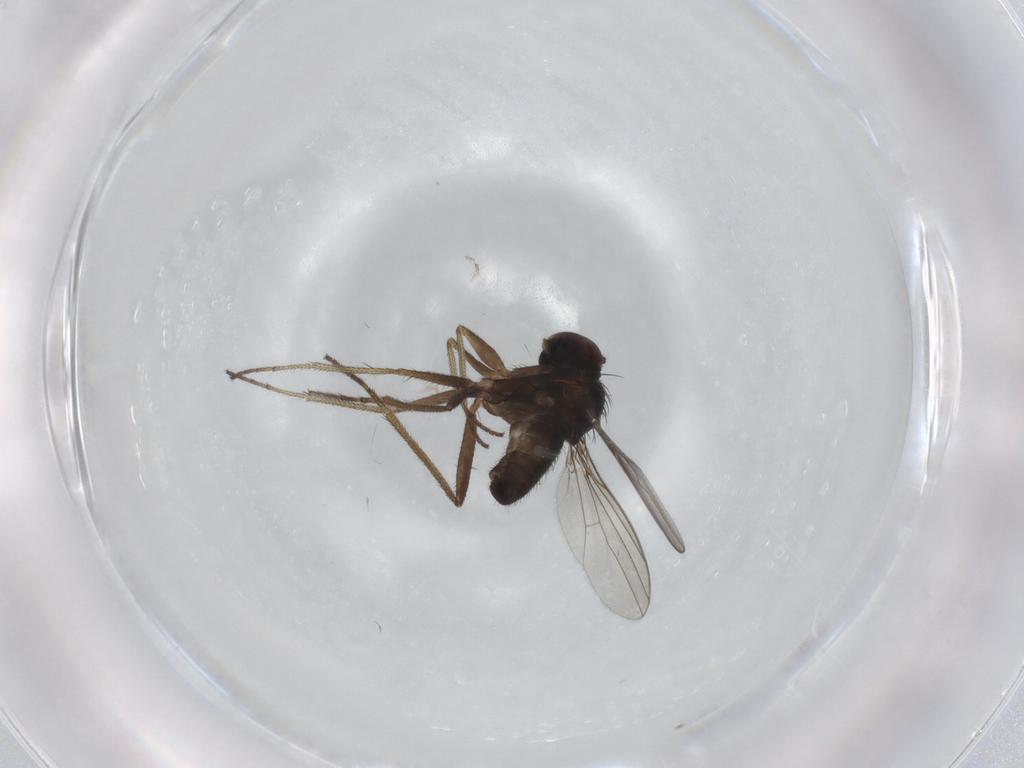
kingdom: Animalia
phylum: Arthropoda
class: Insecta
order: Diptera
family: Dolichopodidae
